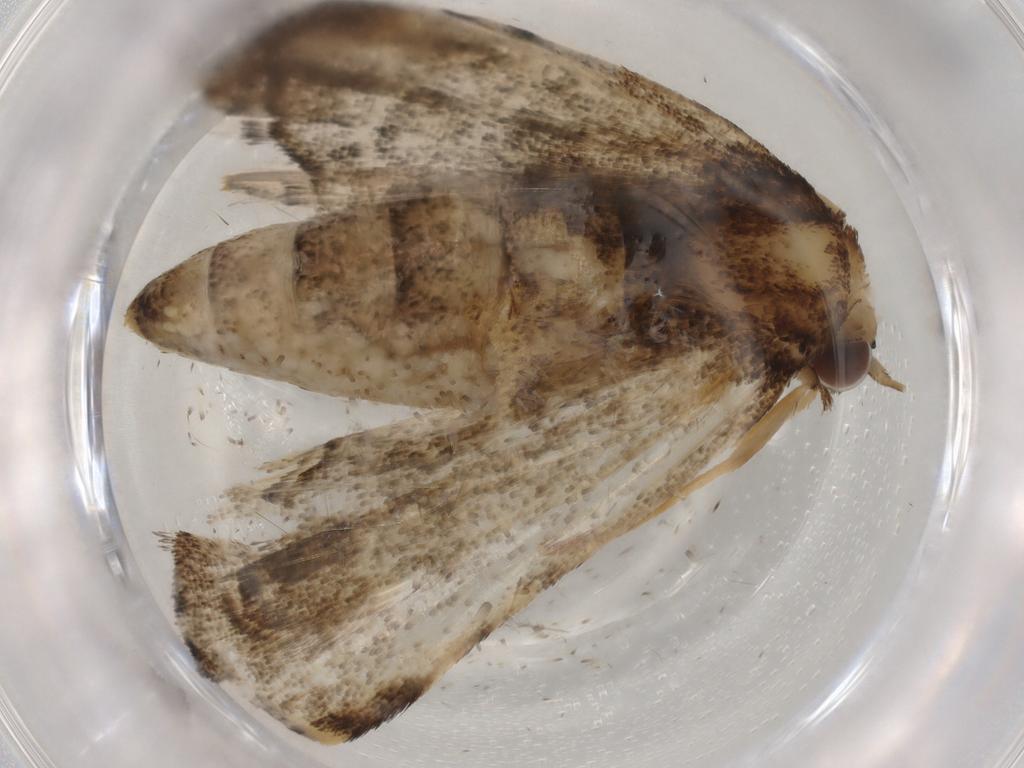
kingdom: Animalia
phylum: Arthropoda
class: Insecta
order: Lepidoptera
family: Crambidae
